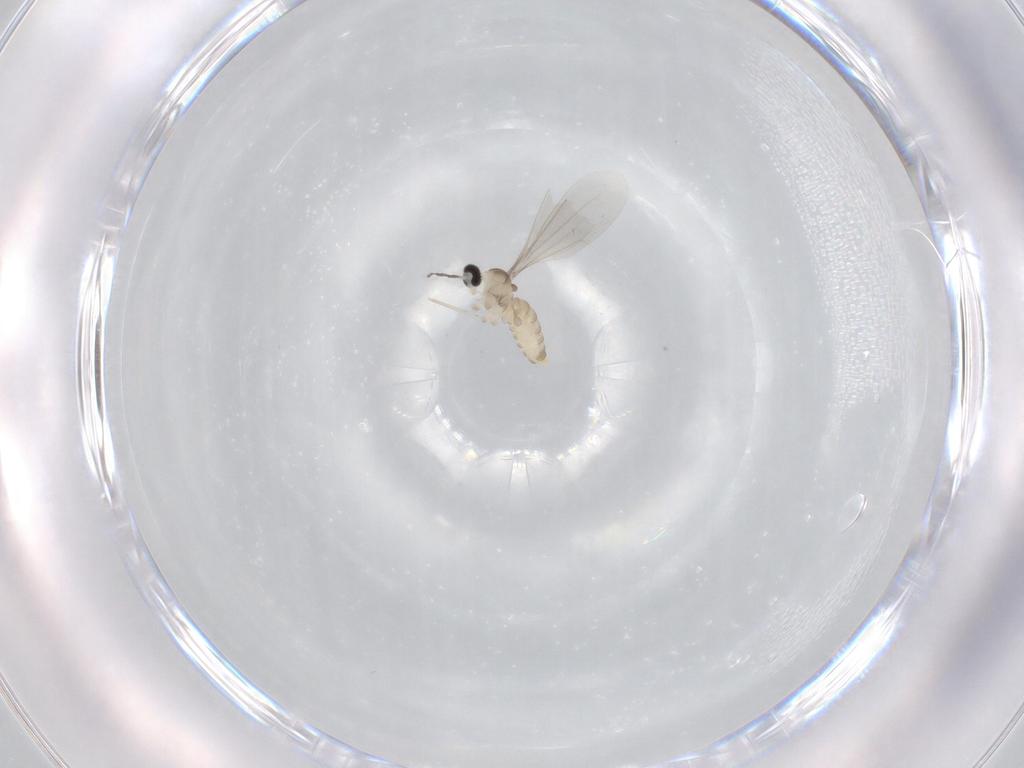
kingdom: Animalia
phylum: Arthropoda
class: Insecta
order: Diptera
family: Cecidomyiidae
